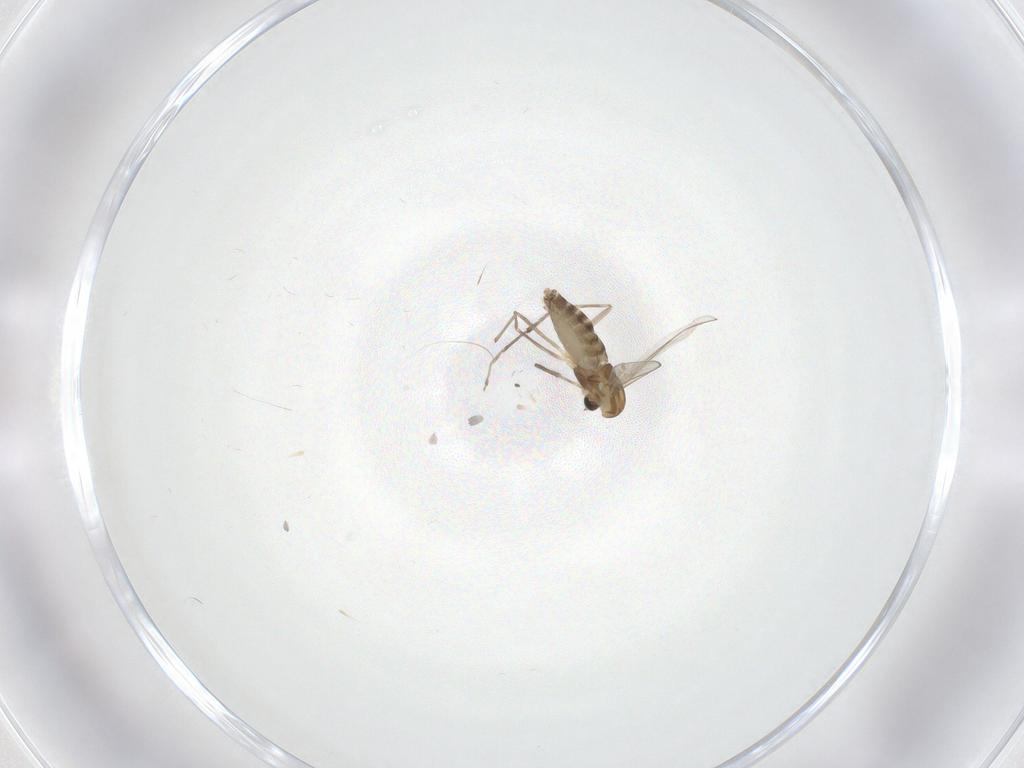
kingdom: Animalia
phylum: Arthropoda
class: Insecta
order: Diptera
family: Chironomidae
